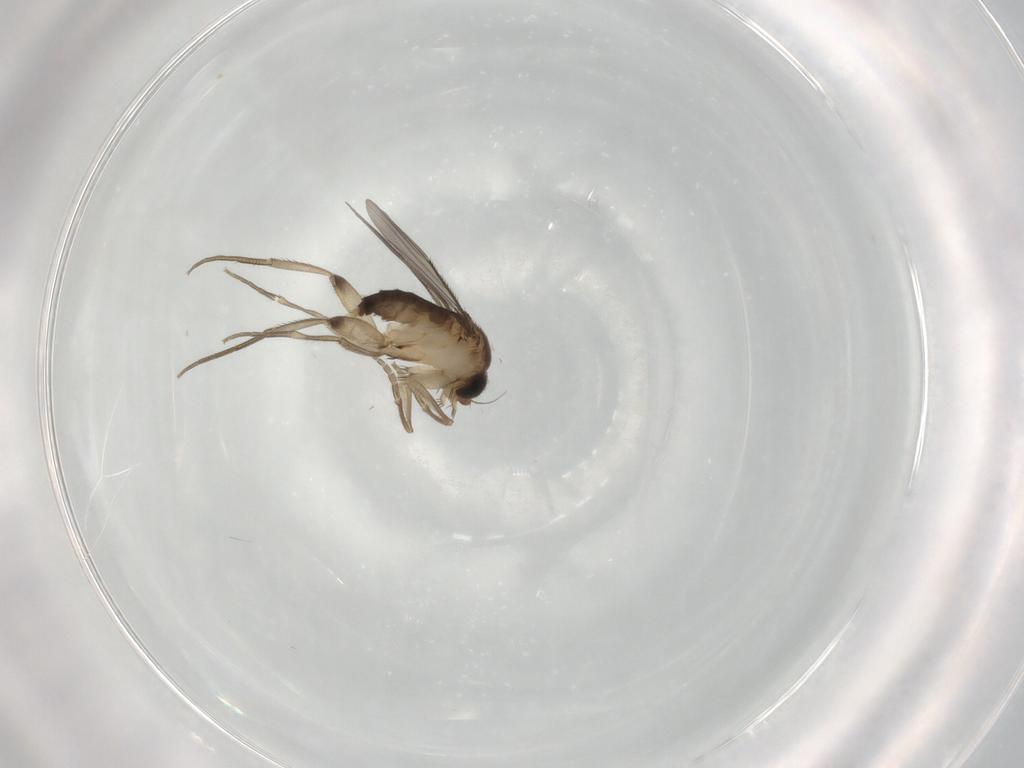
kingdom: Animalia
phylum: Arthropoda
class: Insecta
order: Diptera
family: Phoridae
